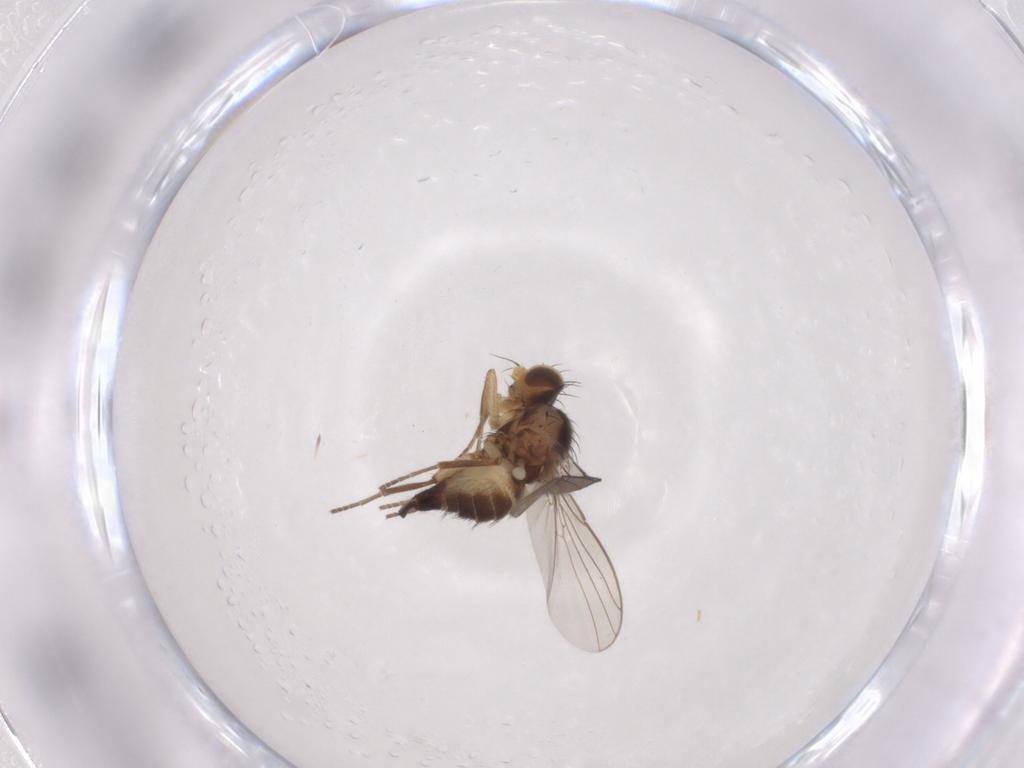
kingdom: Animalia
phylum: Arthropoda
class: Insecta
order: Diptera
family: Agromyzidae
